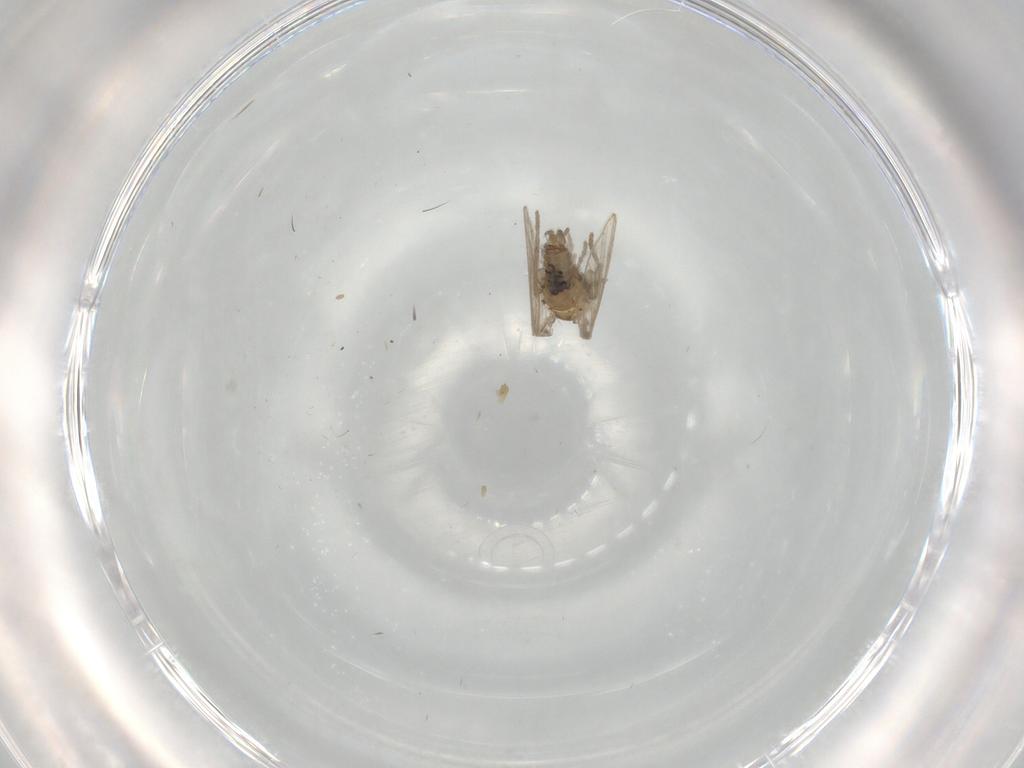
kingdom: Animalia
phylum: Arthropoda
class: Insecta
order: Diptera
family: Psychodidae
